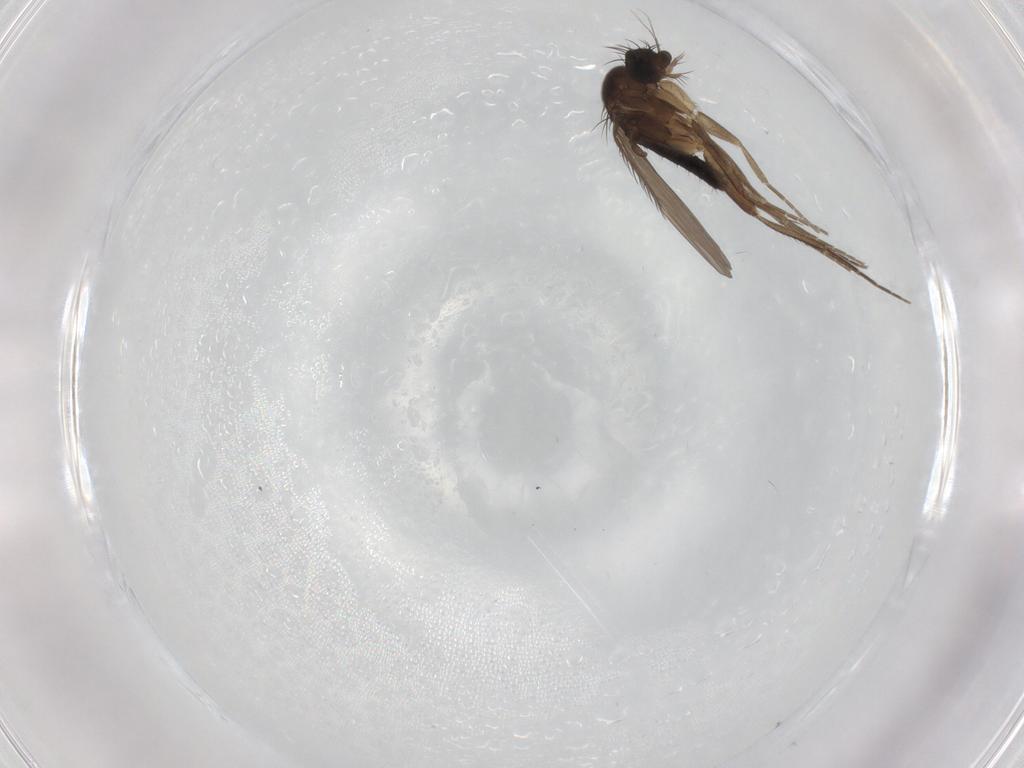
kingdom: Animalia
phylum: Arthropoda
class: Insecta
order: Diptera
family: Phoridae
